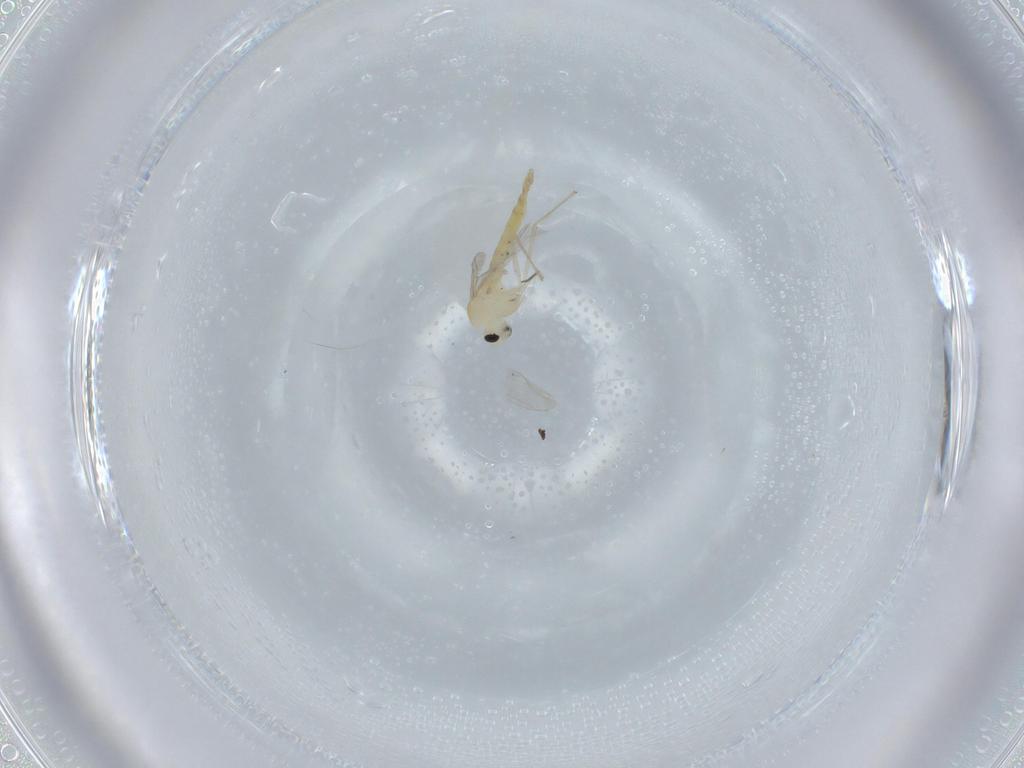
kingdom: Animalia
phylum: Arthropoda
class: Insecta
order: Diptera
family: Chironomidae
